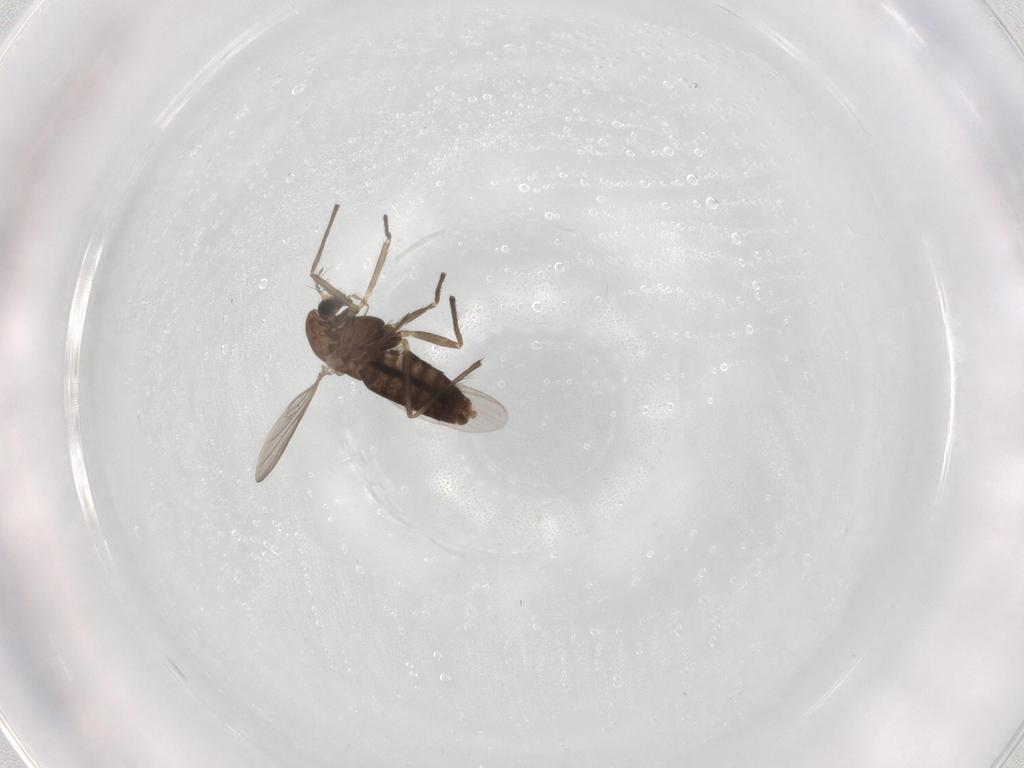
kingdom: Animalia
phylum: Arthropoda
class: Insecta
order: Diptera
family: Chironomidae
